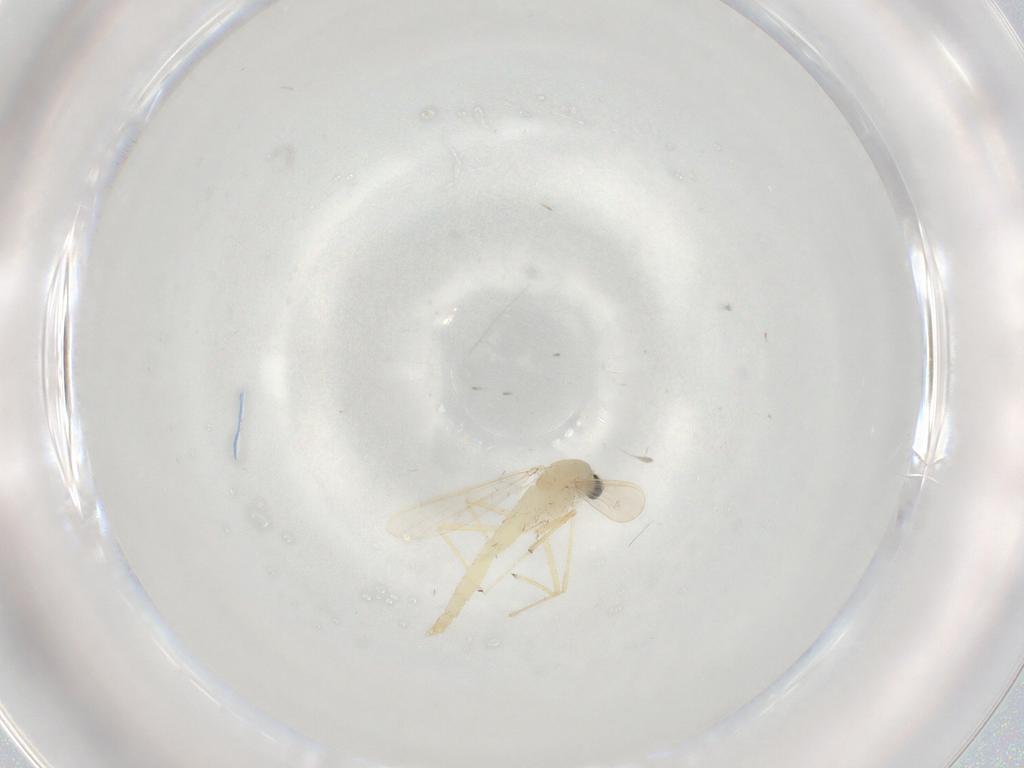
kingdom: Animalia
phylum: Arthropoda
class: Insecta
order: Diptera
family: Chironomidae
